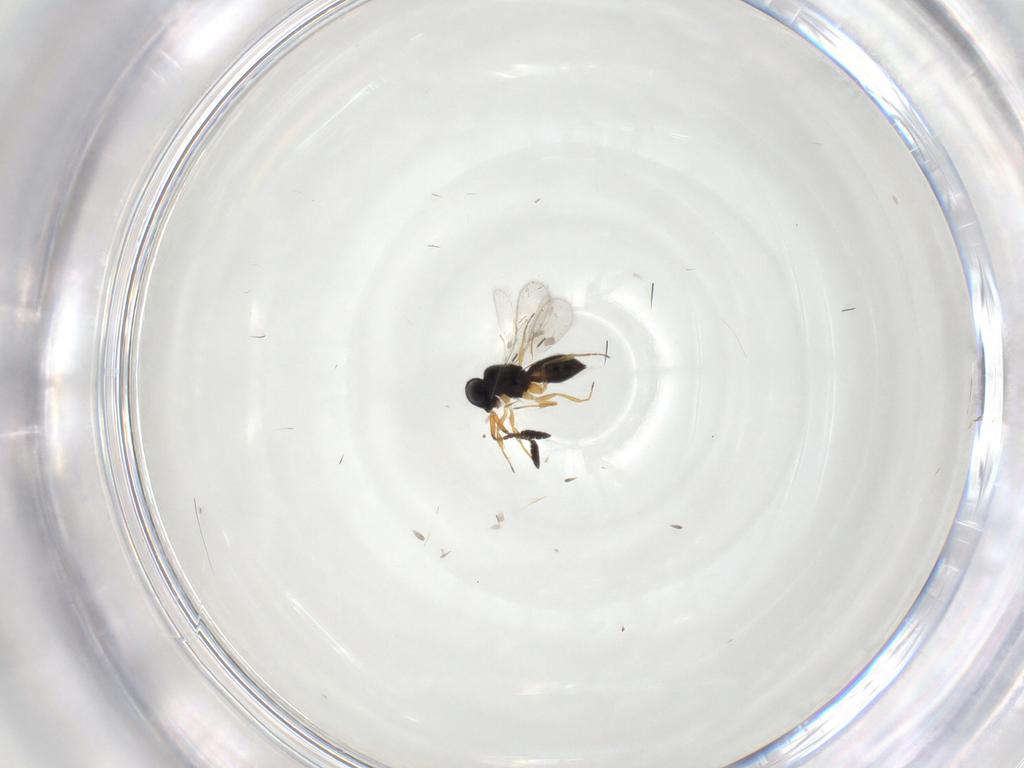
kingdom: Animalia
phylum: Arthropoda
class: Insecta
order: Hymenoptera
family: Scelionidae
